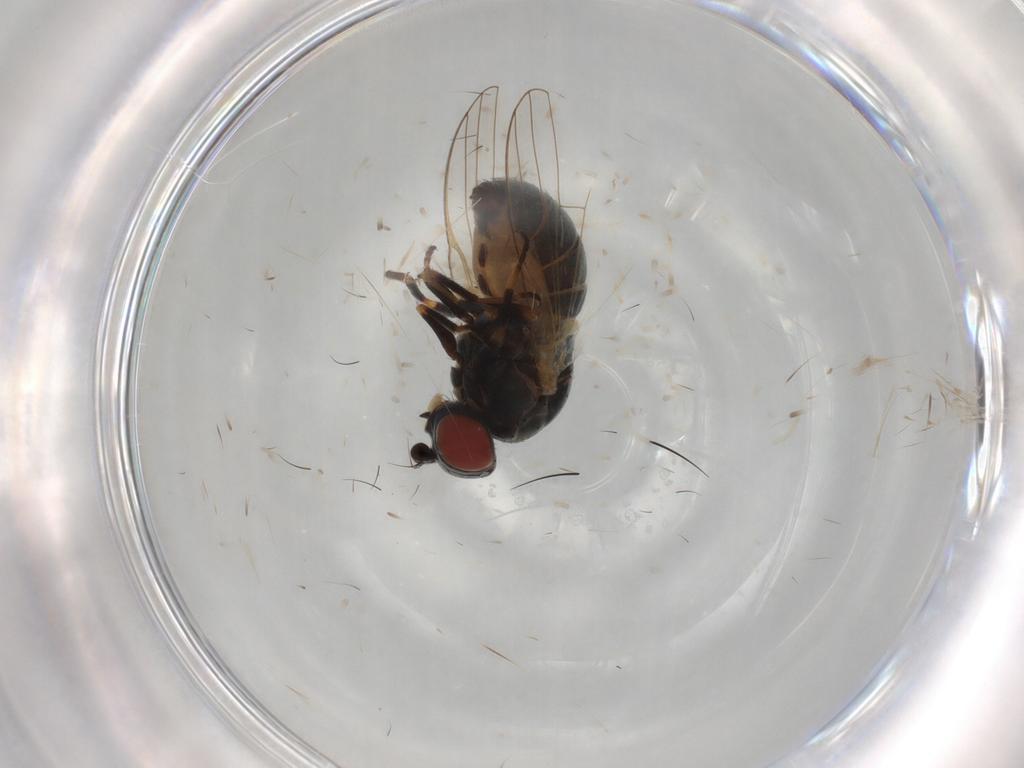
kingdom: Animalia
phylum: Arthropoda
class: Insecta
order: Diptera
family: Chamaemyiidae
